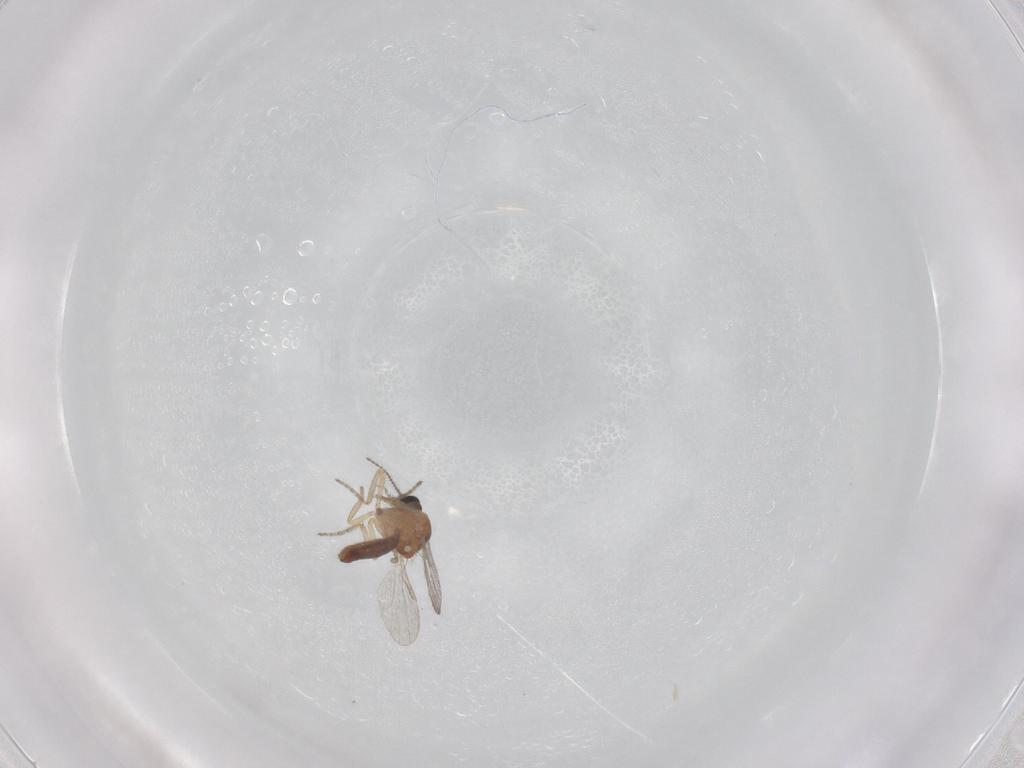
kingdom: Animalia
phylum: Arthropoda
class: Insecta
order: Diptera
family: Ceratopogonidae
